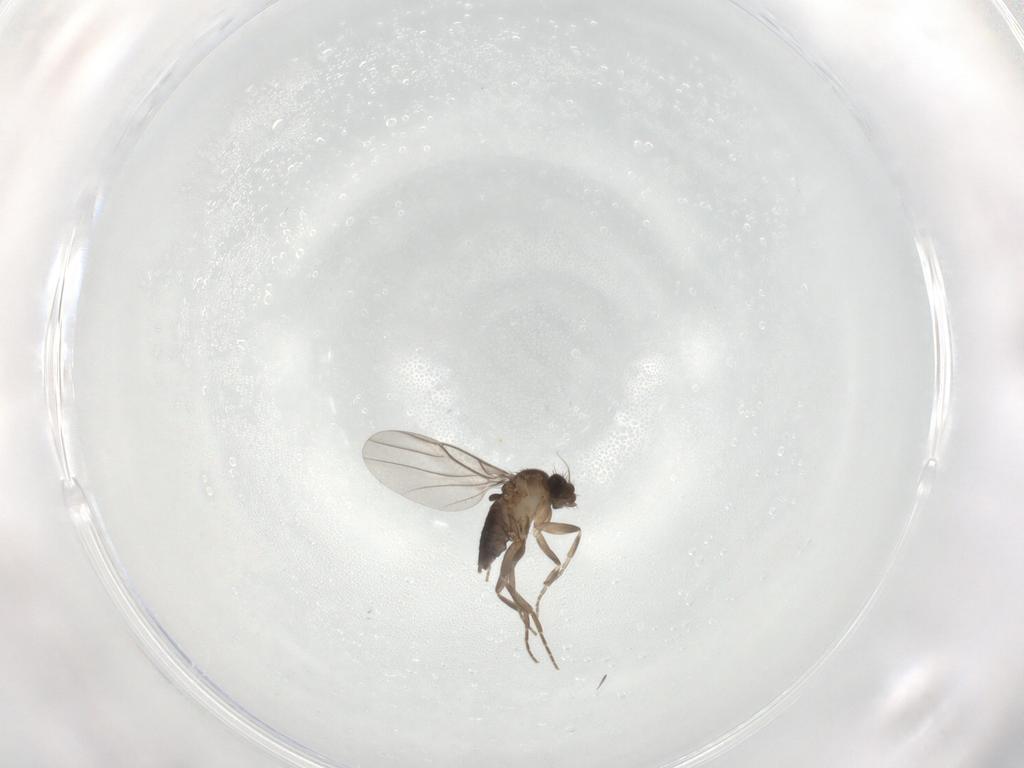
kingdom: Animalia
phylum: Arthropoda
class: Insecta
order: Diptera
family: Phoridae
